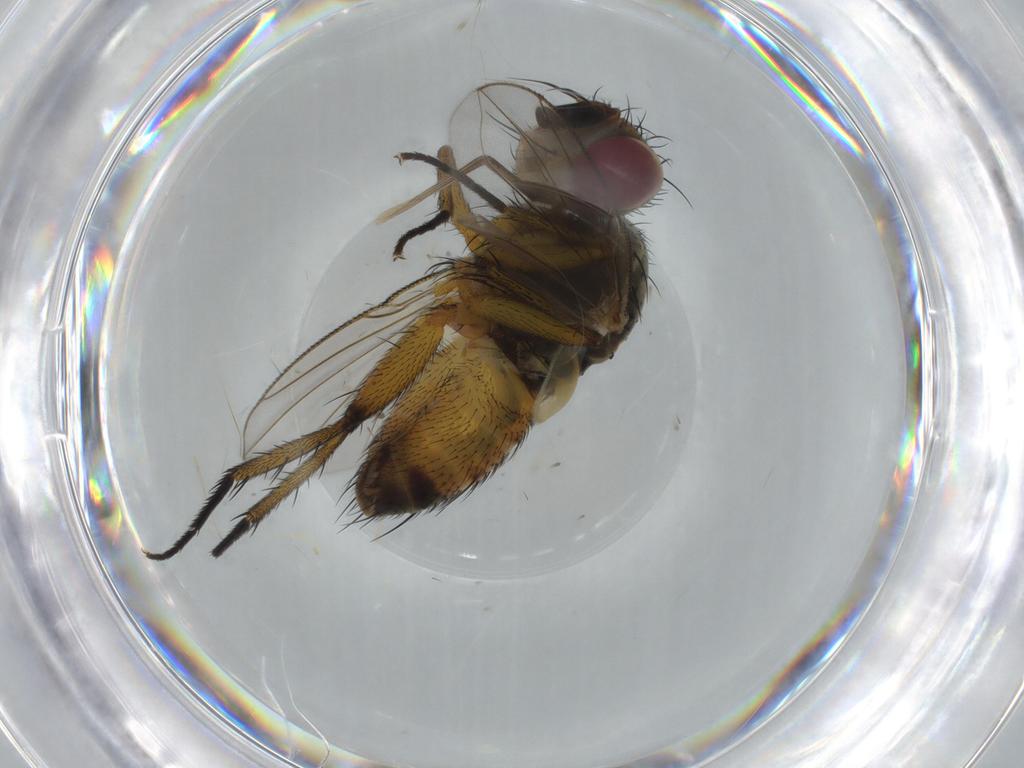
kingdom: Animalia
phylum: Arthropoda
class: Insecta
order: Diptera
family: Tachinidae
